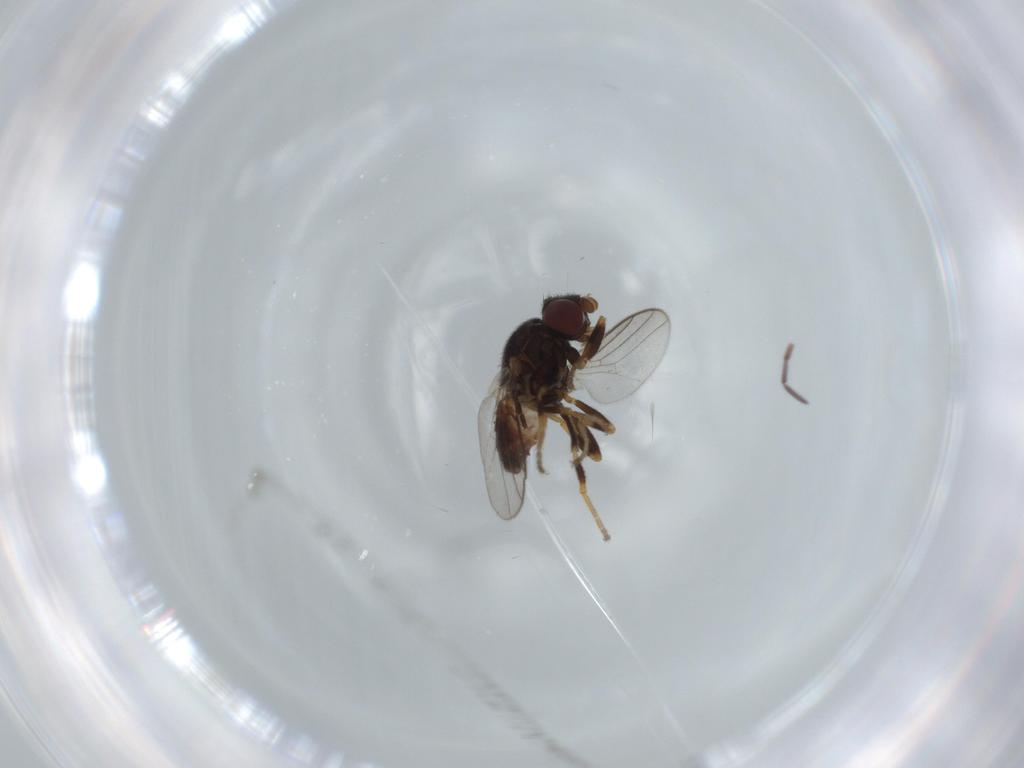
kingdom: Animalia
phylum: Arthropoda
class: Insecta
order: Diptera
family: Chloropidae
